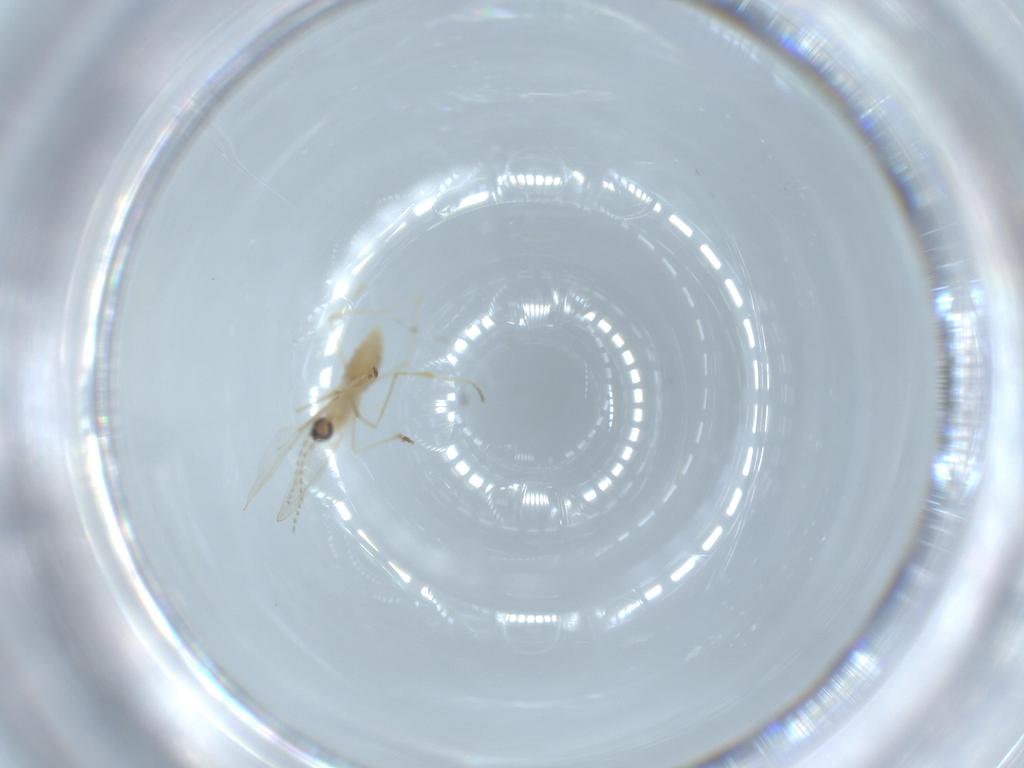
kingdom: Animalia
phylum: Arthropoda
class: Insecta
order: Diptera
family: Cecidomyiidae
